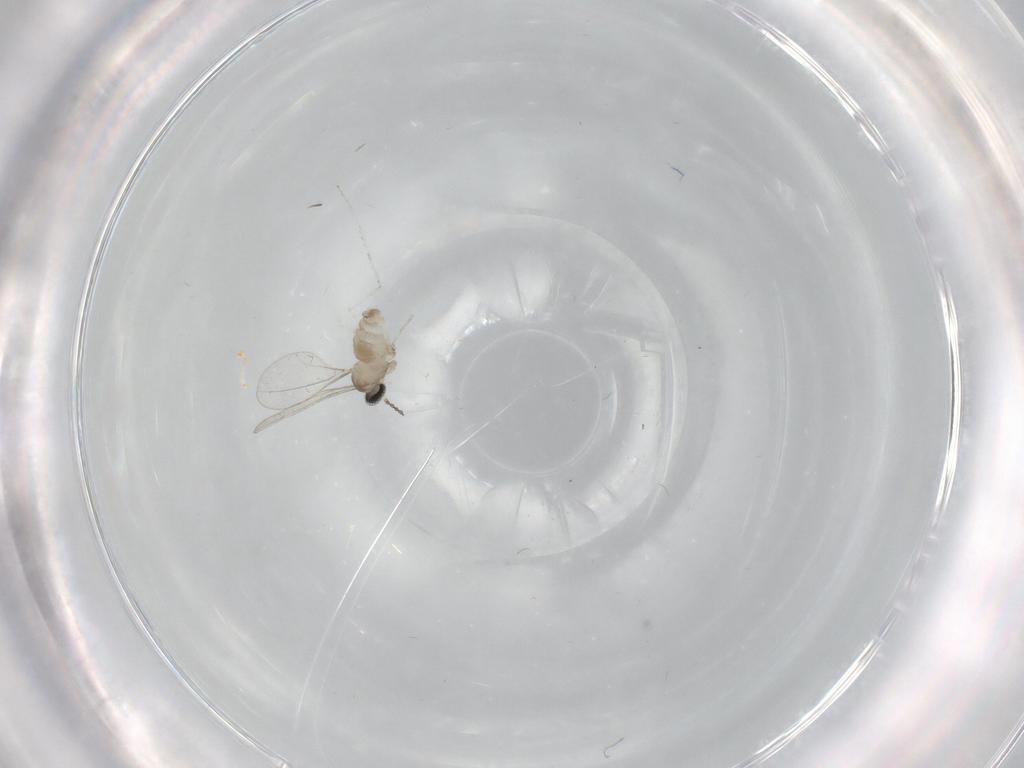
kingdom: Animalia
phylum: Arthropoda
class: Insecta
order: Diptera
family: Cecidomyiidae
